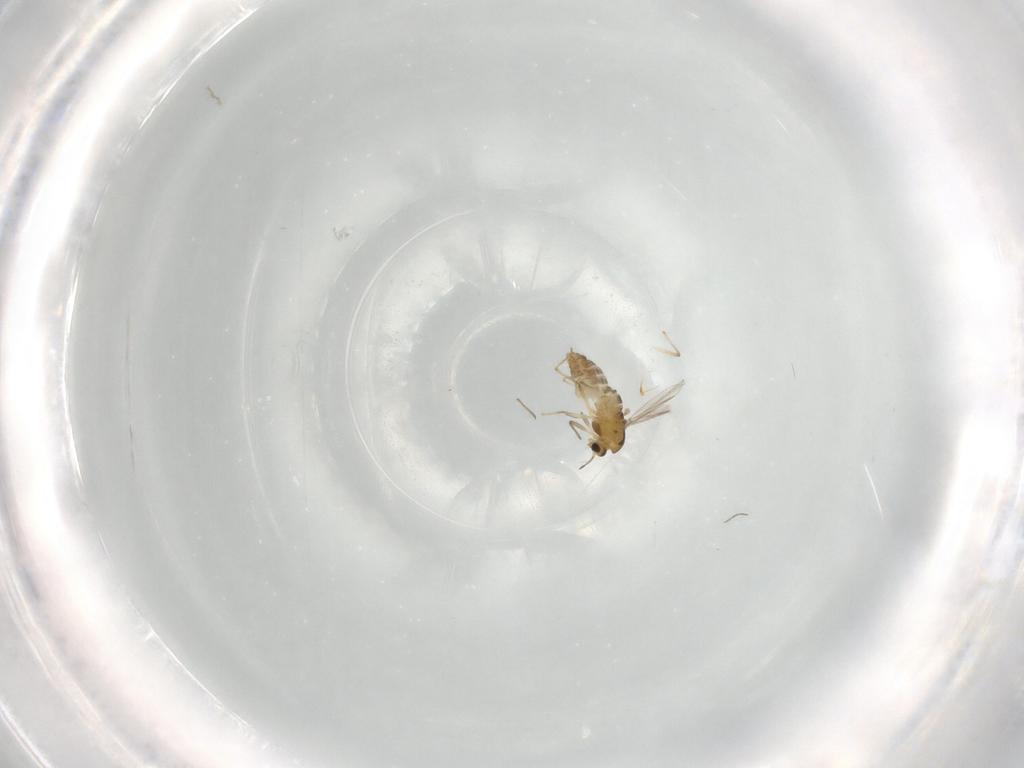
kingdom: Animalia
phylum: Arthropoda
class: Insecta
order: Diptera
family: Chironomidae
